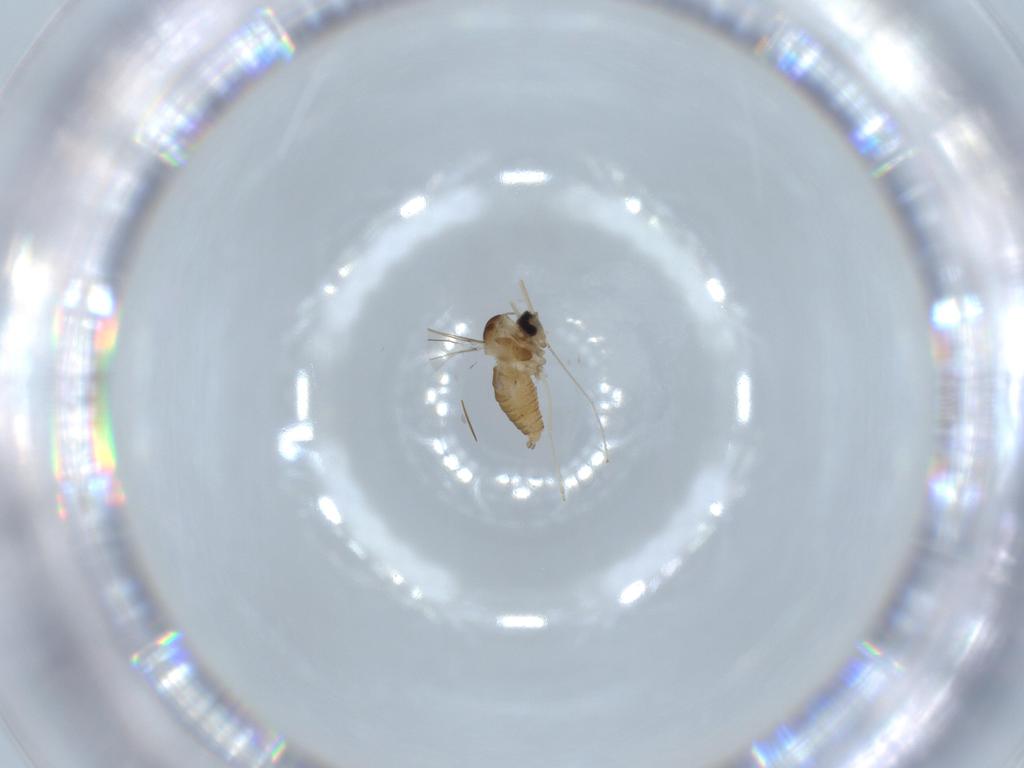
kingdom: Animalia
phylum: Arthropoda
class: Insecta
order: Diptera
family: Cecidomyiidae
